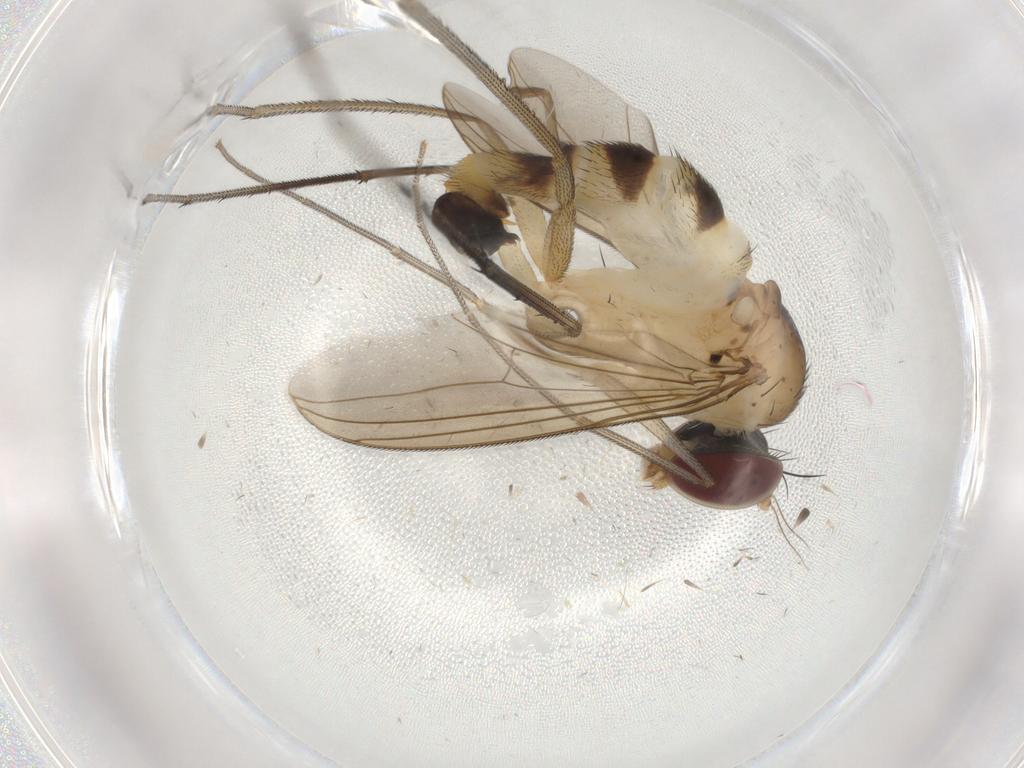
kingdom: Animalia
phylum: Arthropoda
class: Insecta
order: Diptera
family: Dolichopodidae
